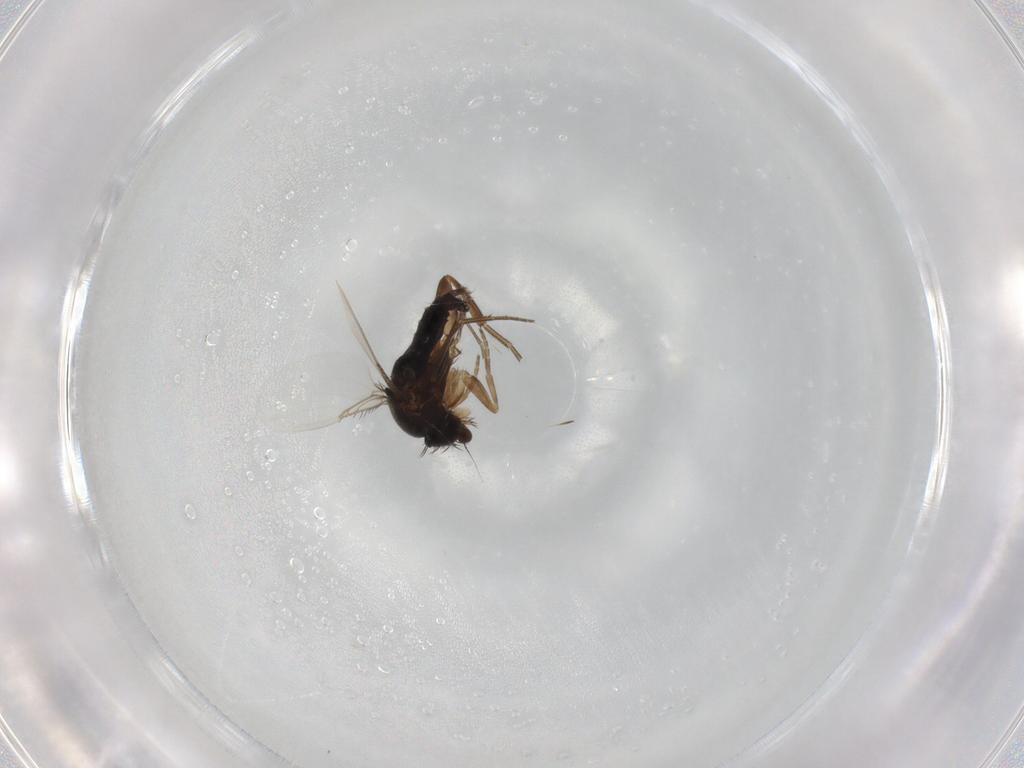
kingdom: Animalia
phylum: Arthropoda
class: Insecta
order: Diptera
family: Phoridae
